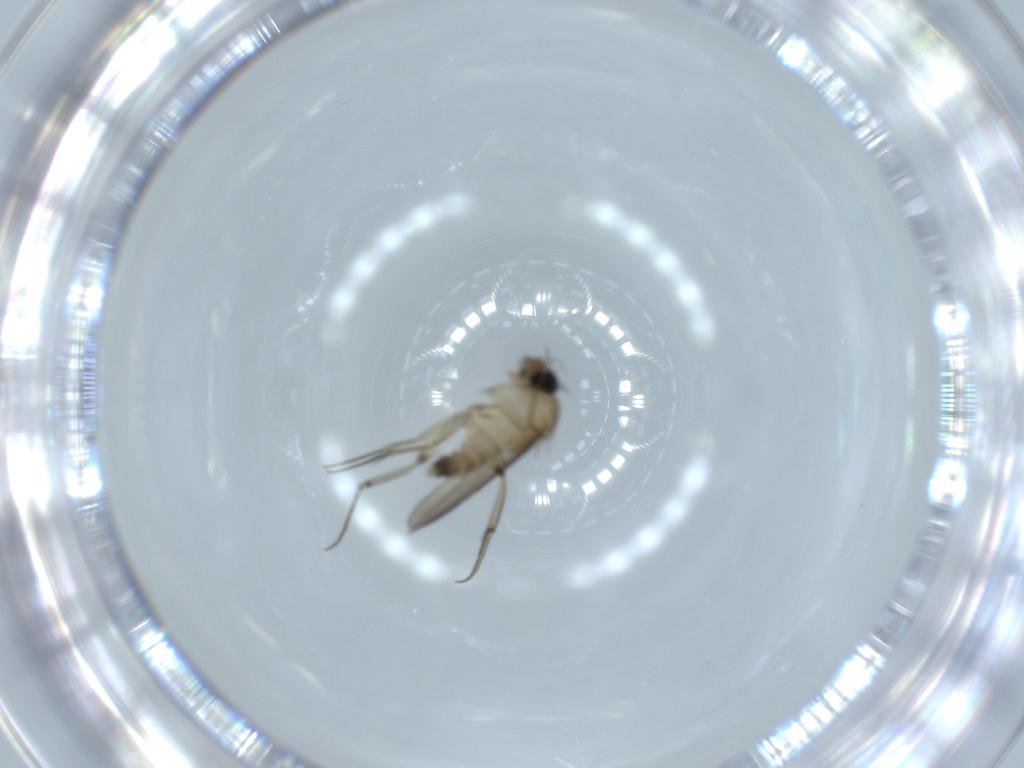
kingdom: Animalia
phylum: Arthropoda
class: Insecta
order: Diptera
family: Phoridae
